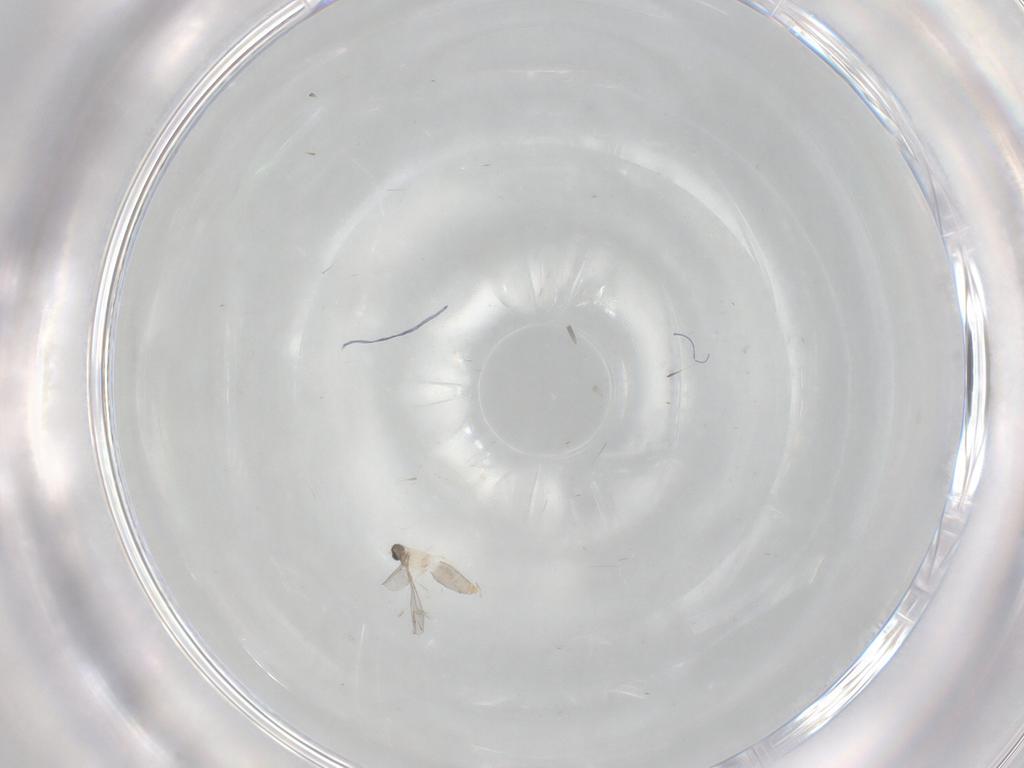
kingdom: Animalia
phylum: Arthropoda
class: Insecta
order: Diptera
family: Cecidomyiidae
